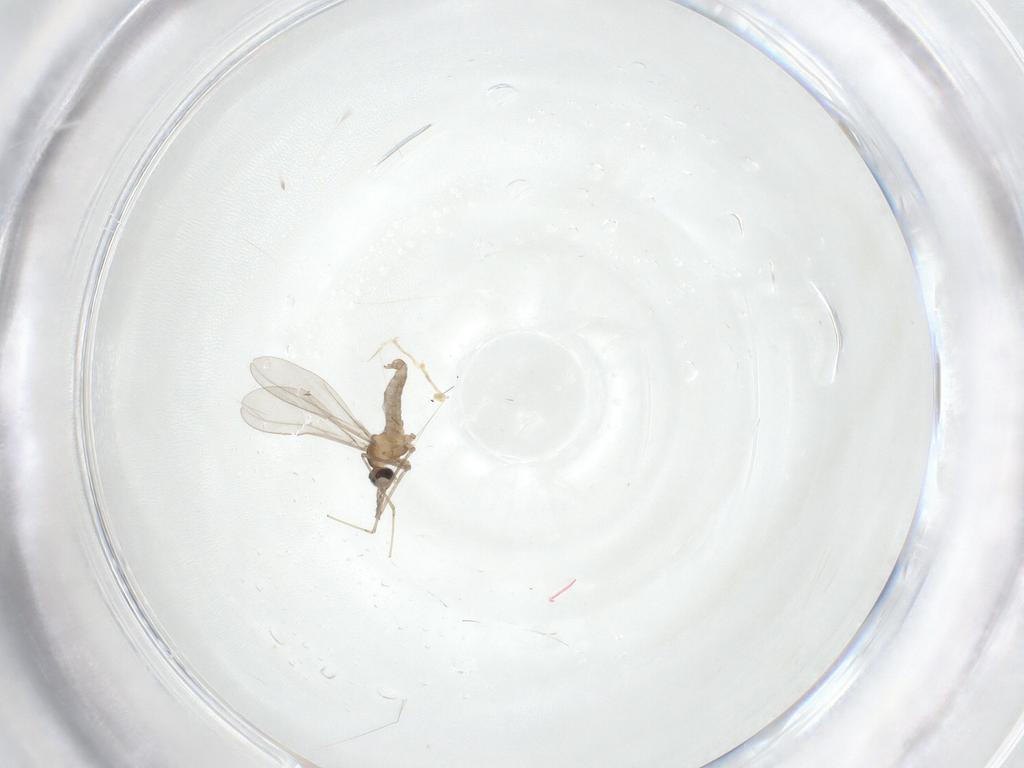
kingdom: Animalia
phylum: Arthropoda
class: Insecta
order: Diptera
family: Cecidomyiidae
